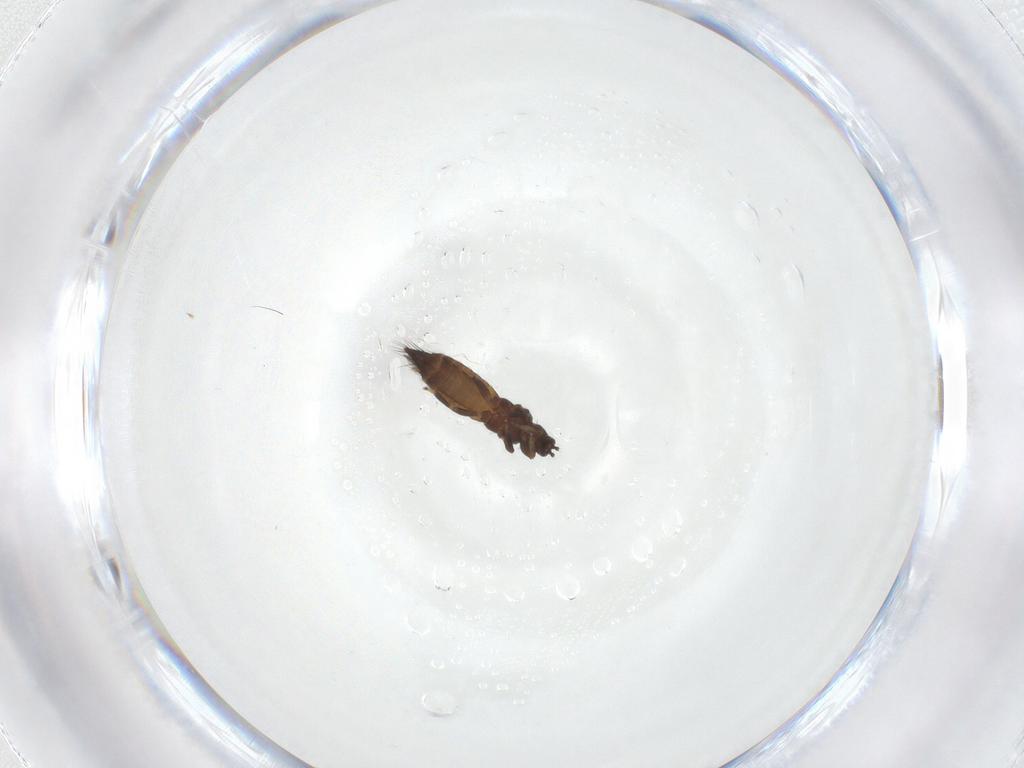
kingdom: Animalia
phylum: Arthropoda
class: Insecta
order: Thysanoptera
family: Thripidae
